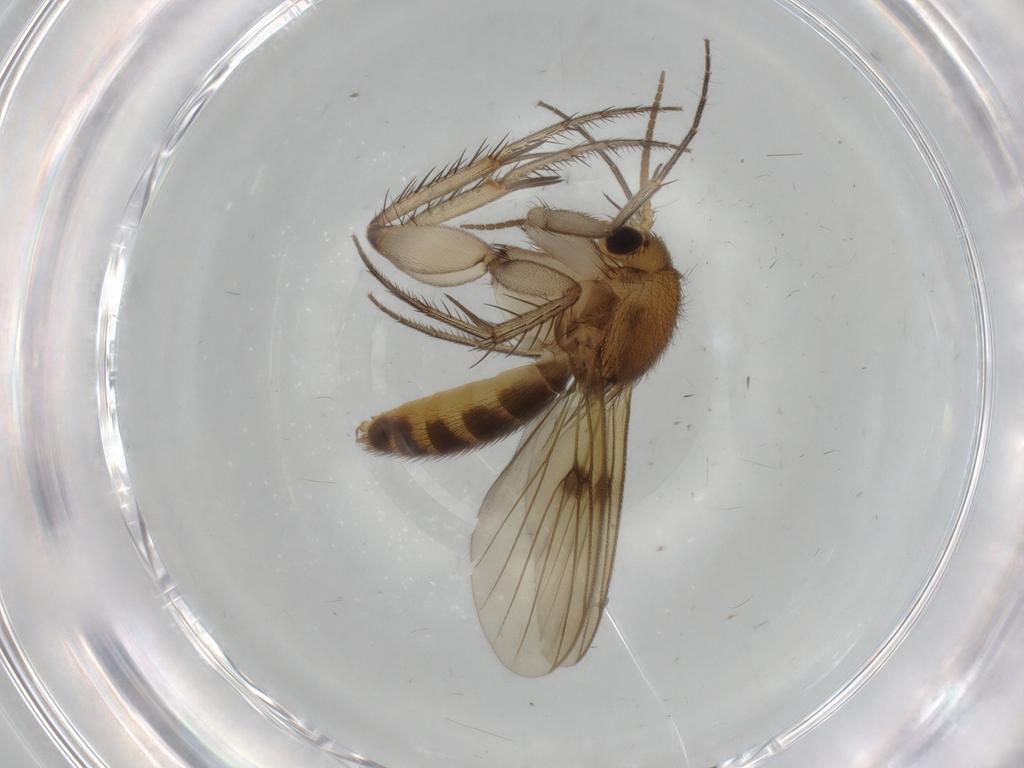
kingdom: Animalia
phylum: Arthropoda
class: Insecta
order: Diptera
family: Mycetophilidae
